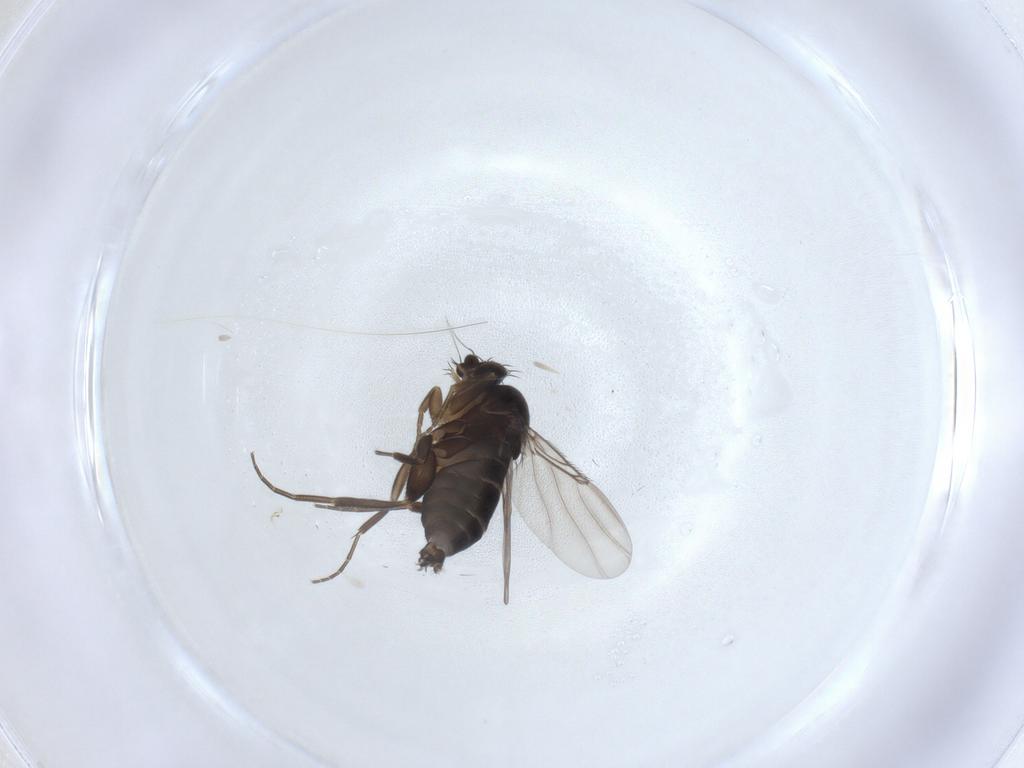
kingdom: Animalia
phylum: Arthropoda
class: Insecta
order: Diptera
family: Phoridae
